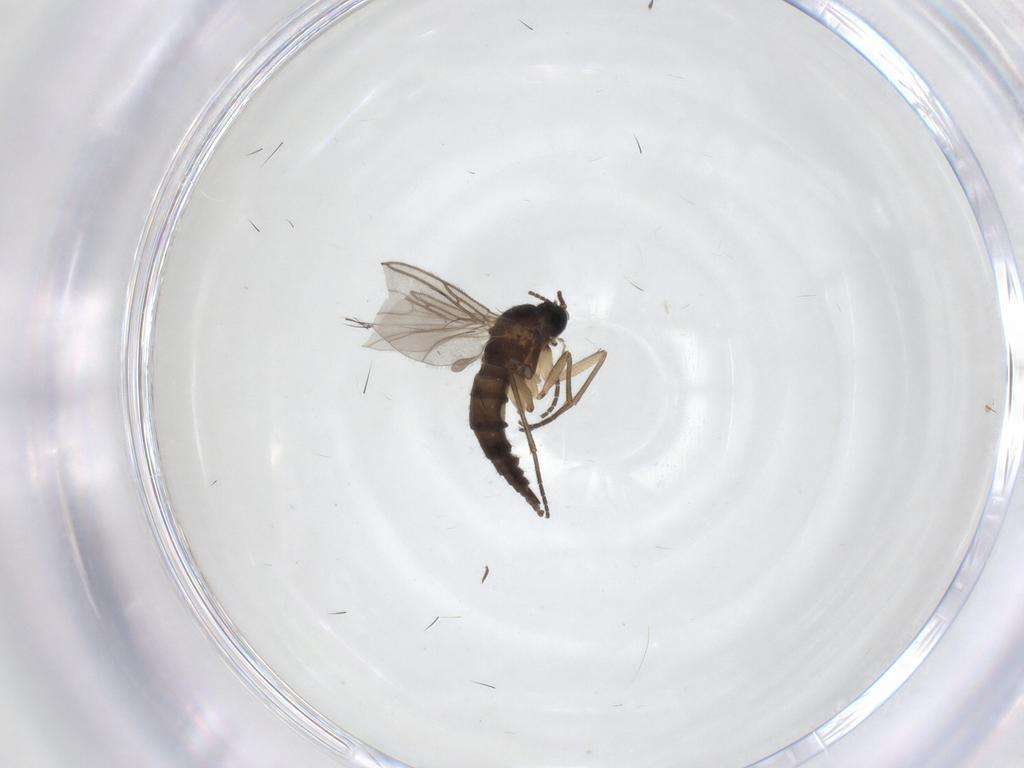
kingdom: Animalia
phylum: Arthropoda
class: Insecta
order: Diptera
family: Sciaridae
